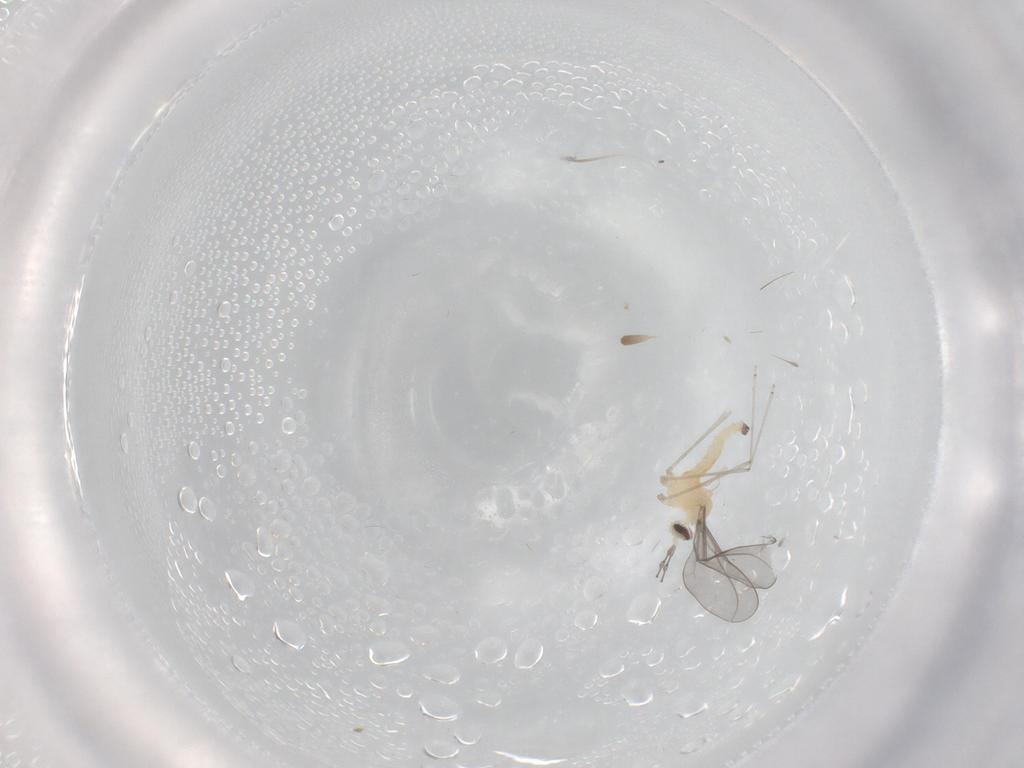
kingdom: Animalia
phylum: Arthropoda
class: Insecta
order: Diptera
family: Cecidomyiidae
